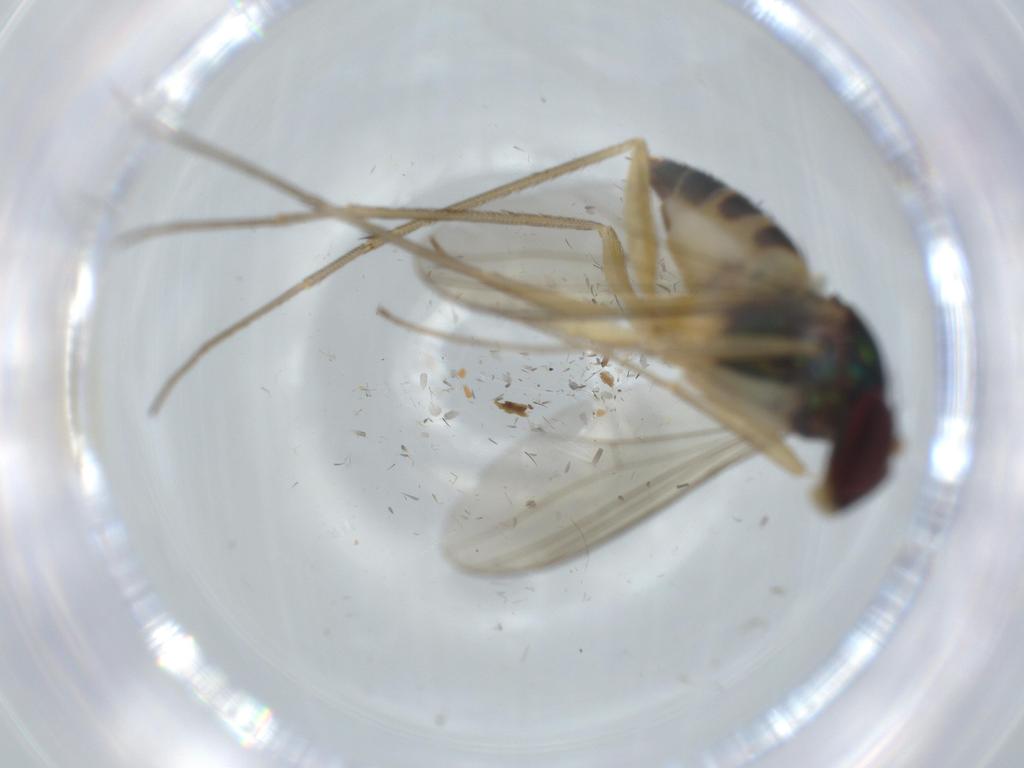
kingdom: Animalia
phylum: Arthropoda
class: Insecta
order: Diptera
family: Dolichopodidae
